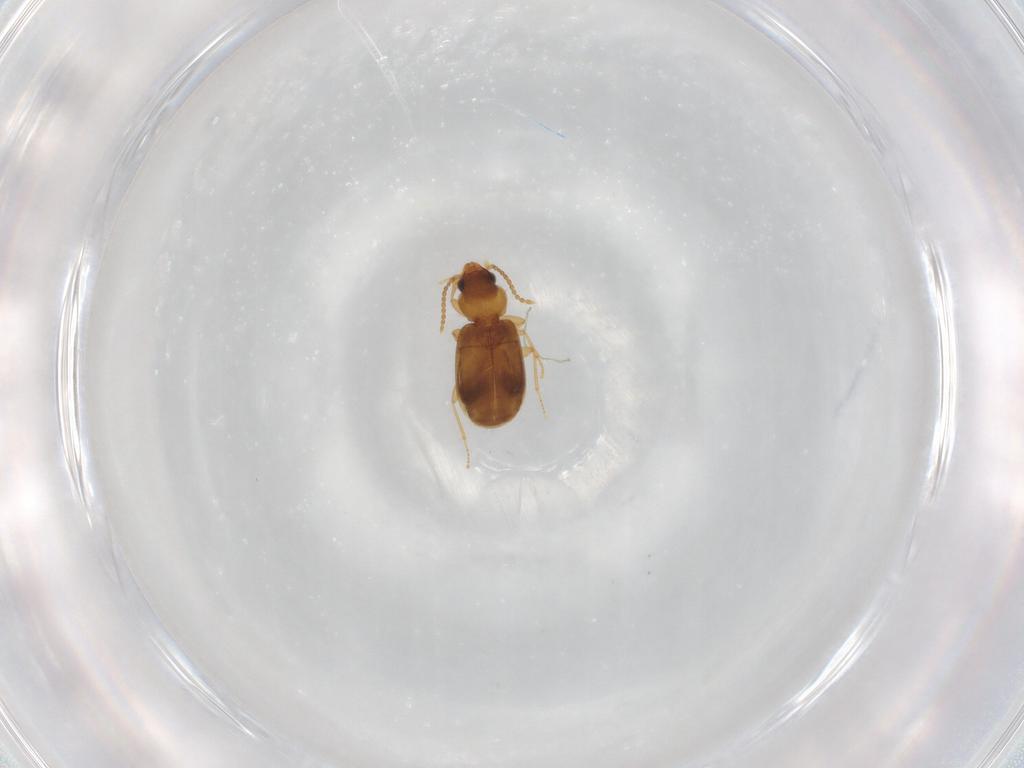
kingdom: Animalia
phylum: Arthropoda
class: Insecta
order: Coleoptera
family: Carabidae
